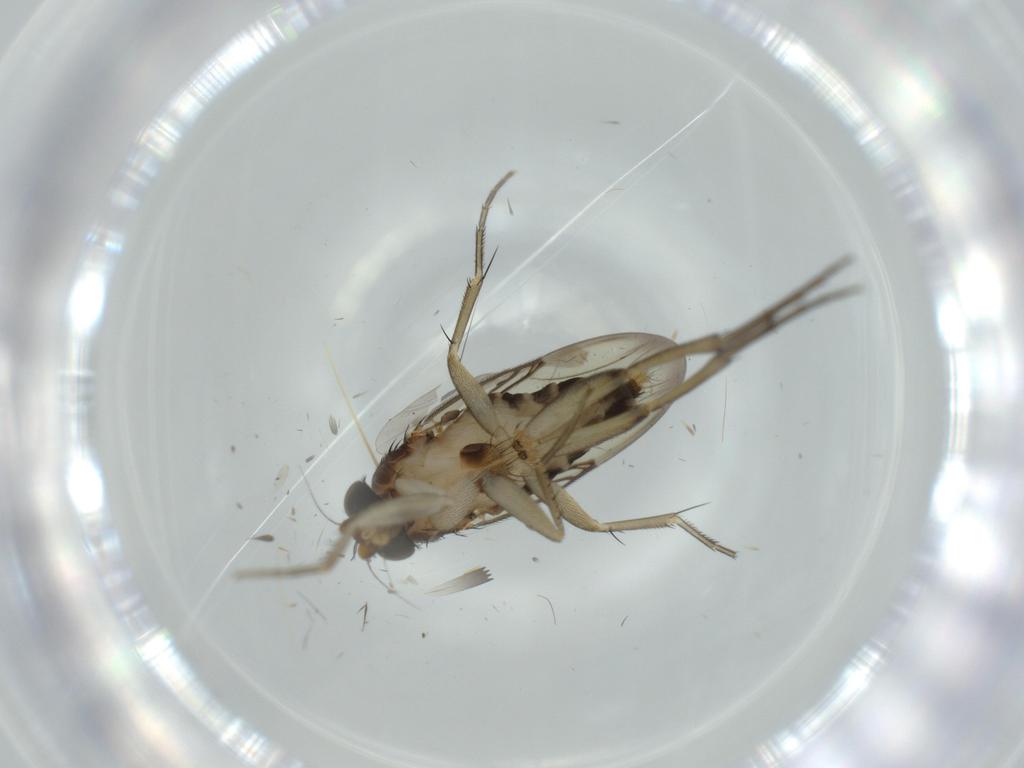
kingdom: Animalia
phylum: Arthropoda
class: Insecta
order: Diptera
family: Phoridae
